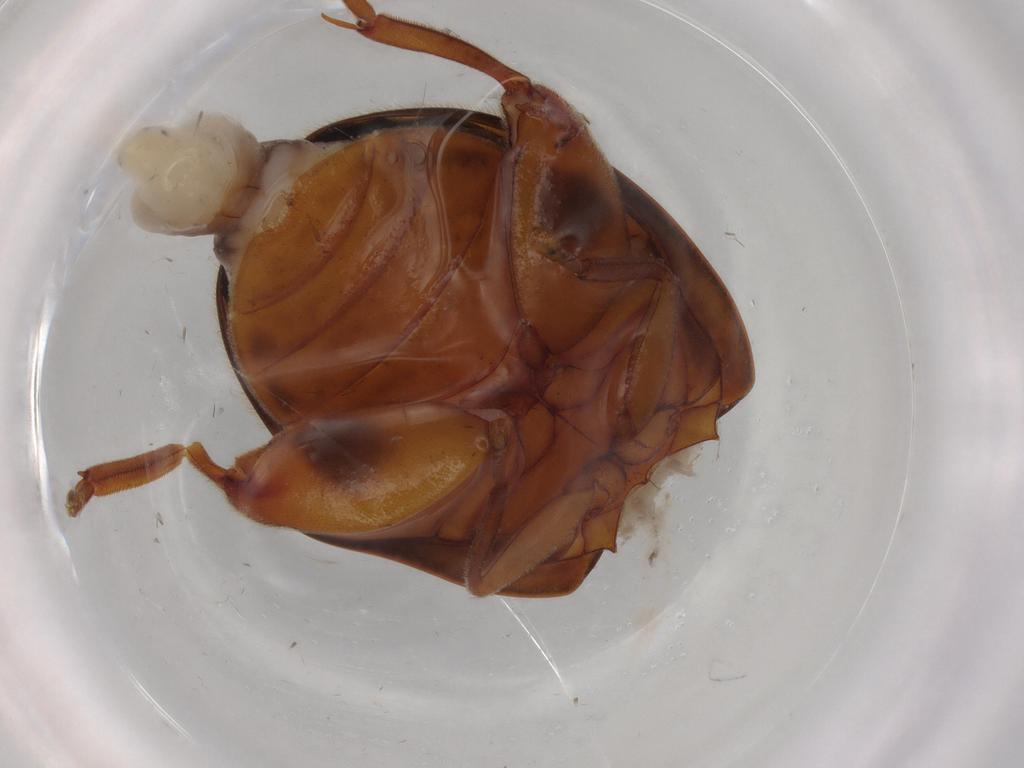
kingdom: Animalia
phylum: Arthropoda
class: Insecta
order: Coleoptera
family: Scirtidae
